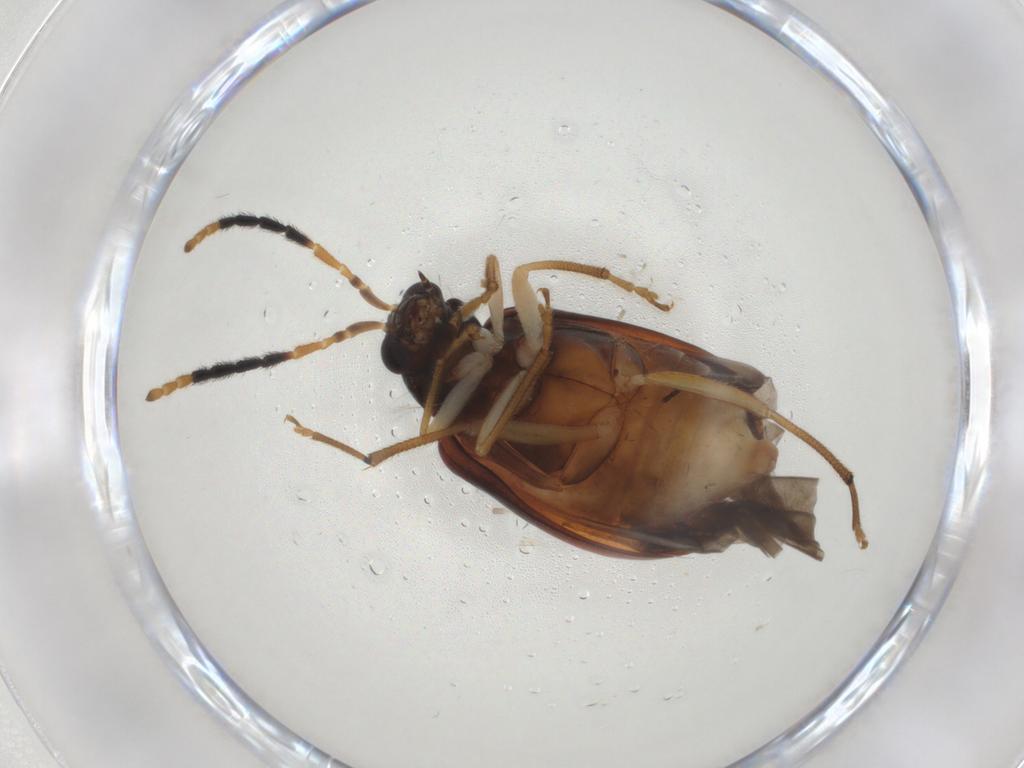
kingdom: Animalia
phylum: Arthropoda
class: Insecta
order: Coleoptera
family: Chrysomelidae
